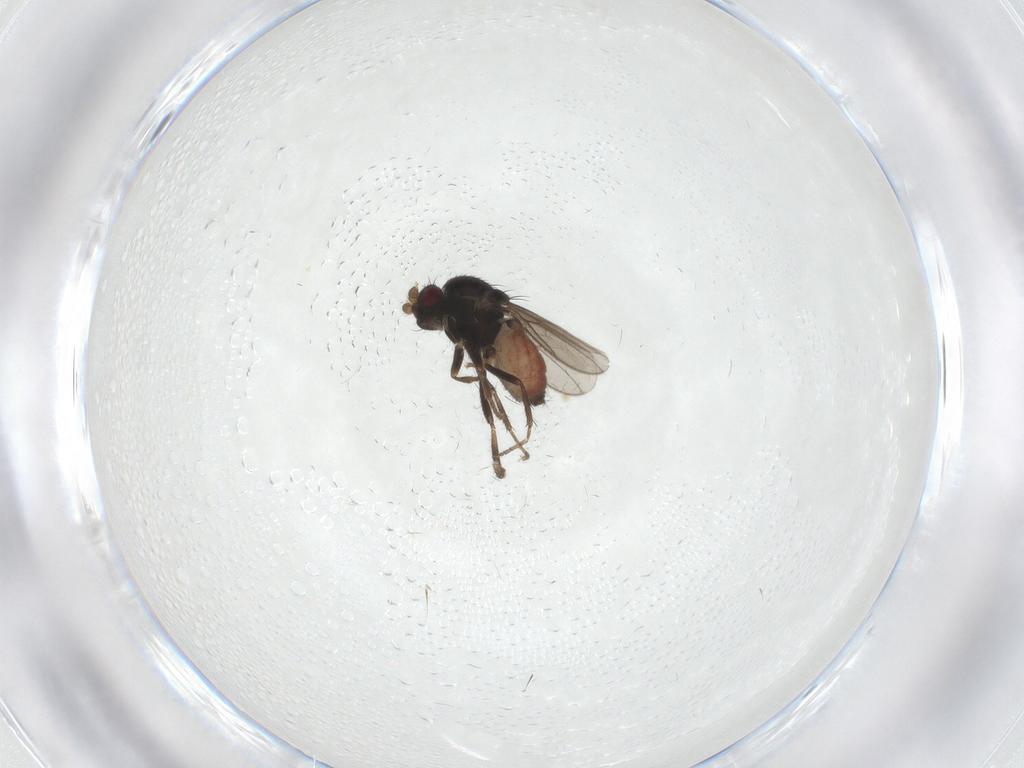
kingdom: Animalia
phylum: Arthropoda
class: Insecta
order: Diptera
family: Sphaeroceridae
